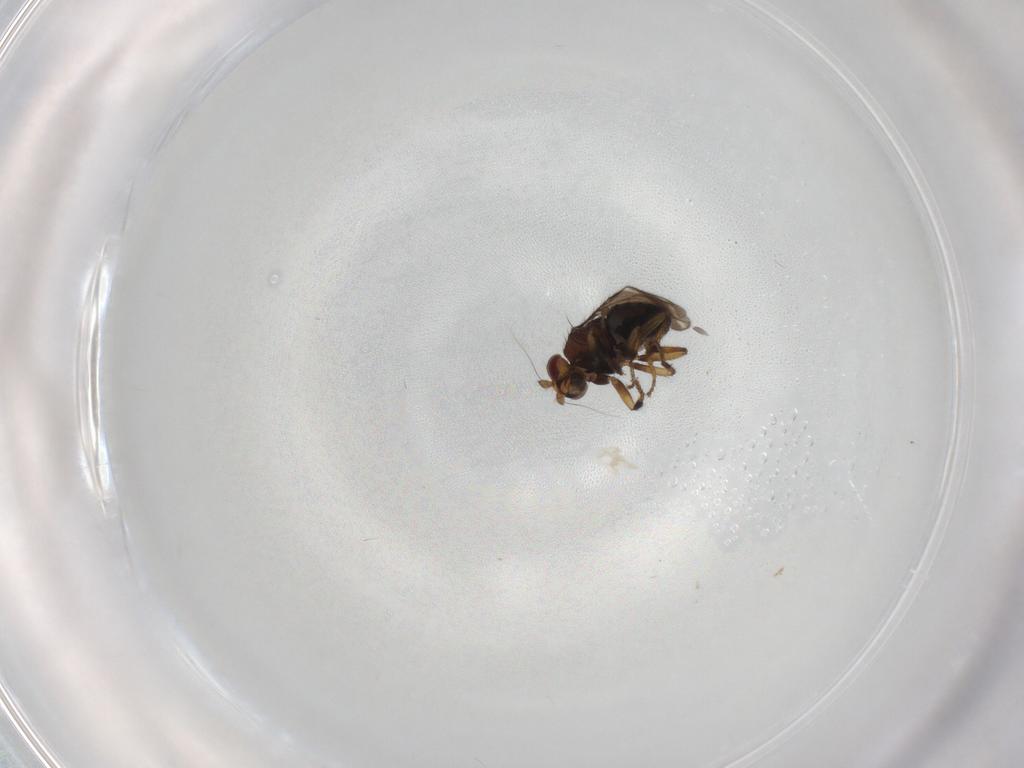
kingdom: Animalia
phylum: Arthropoda
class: Insecta
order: Diptera
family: Sphaeroceridae
